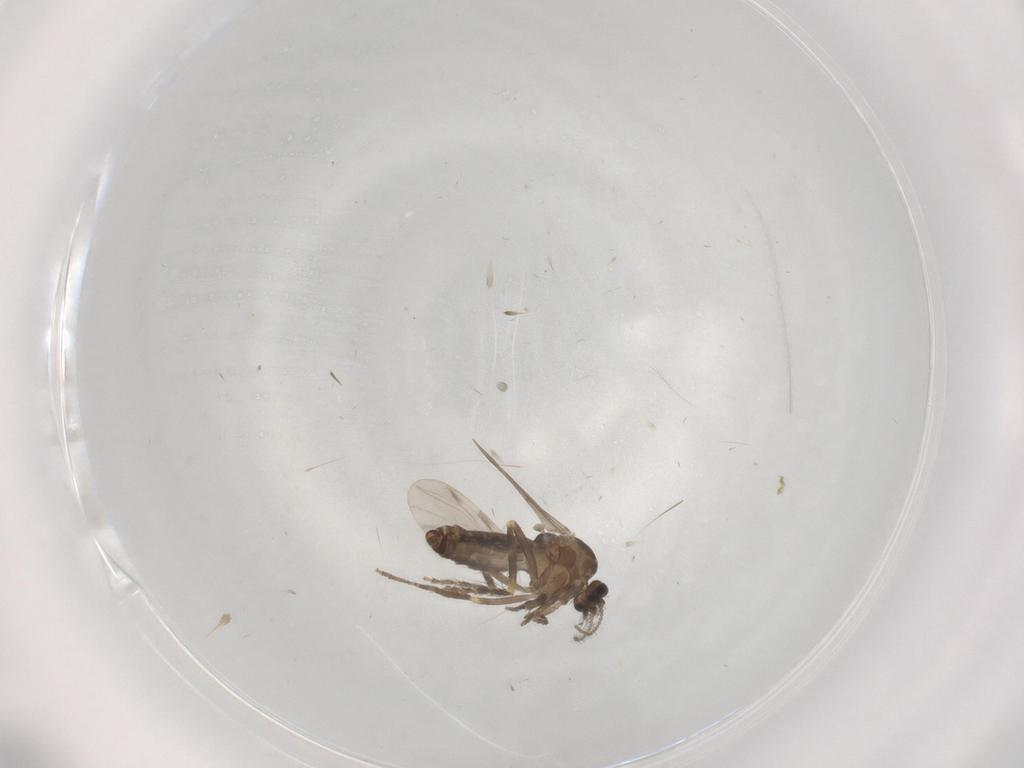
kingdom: Animalia
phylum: Arthropoda
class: Insecta
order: Diptera
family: Ceratopogonidae
